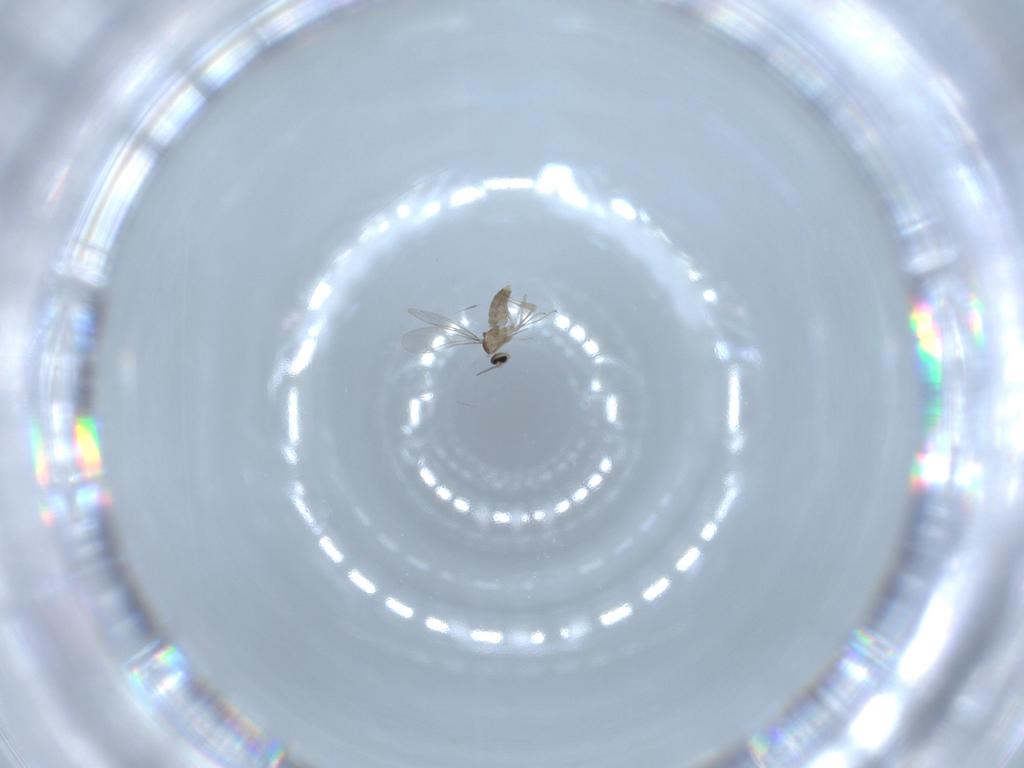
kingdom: Animalia
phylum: Arthropoda
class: Insecta
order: Diptera
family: Cecidomyiidae
